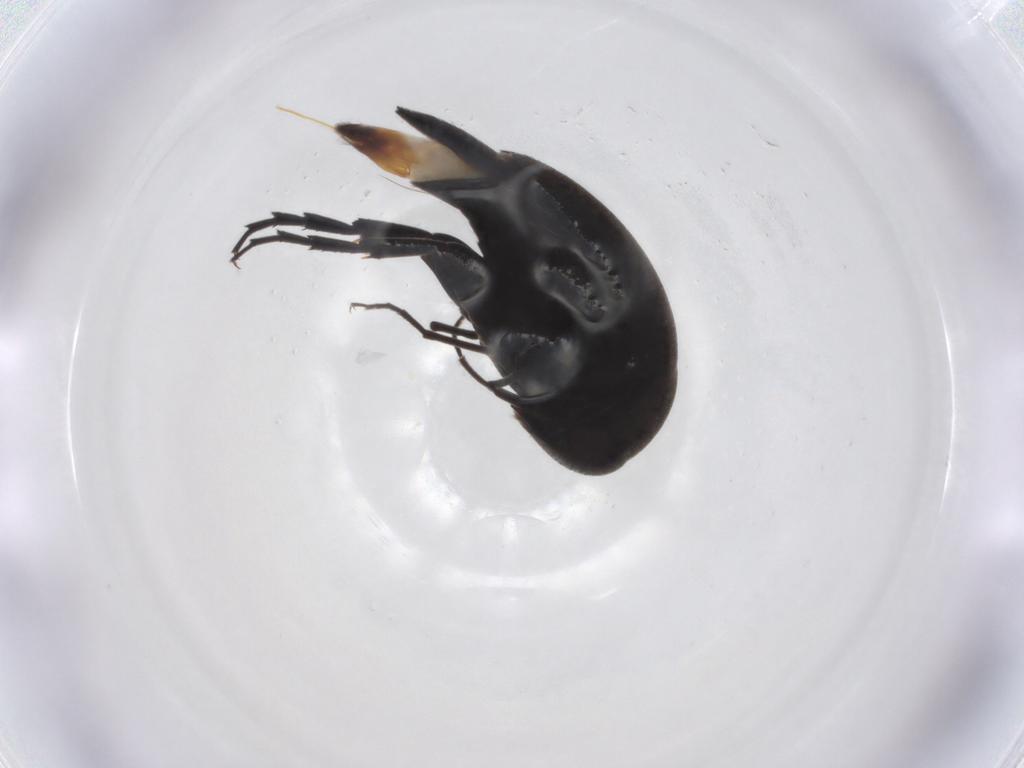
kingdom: Animalia
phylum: Arthropoda
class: Insecta
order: Coleoptera
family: Mordellidae
